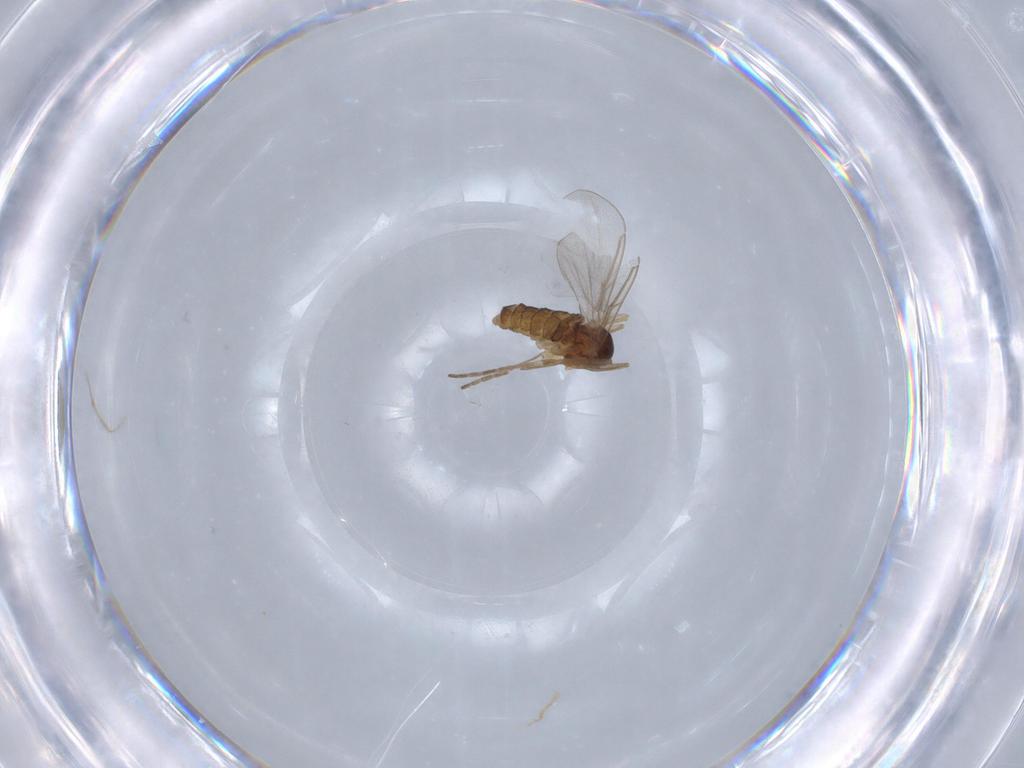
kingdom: Animalia
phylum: Arthropoda
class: Insecta
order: Diptera
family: Cecidomyiidae
